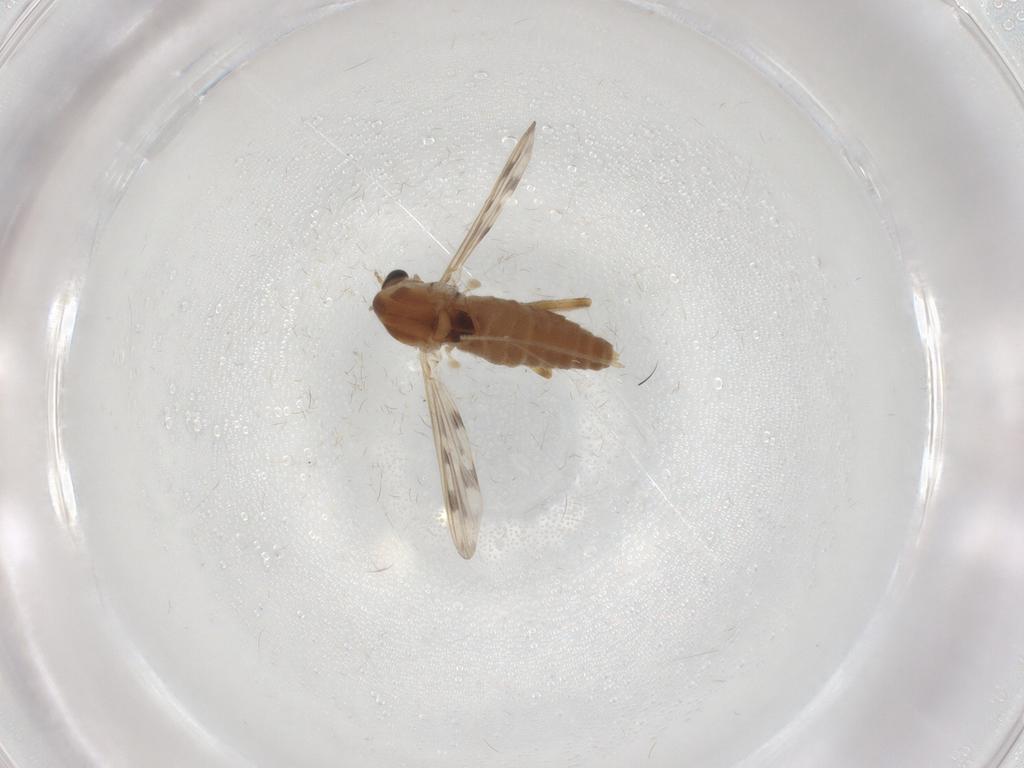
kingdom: Animalia
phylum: Arthropoda
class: Insecta
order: Diptera
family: Chironomidae
